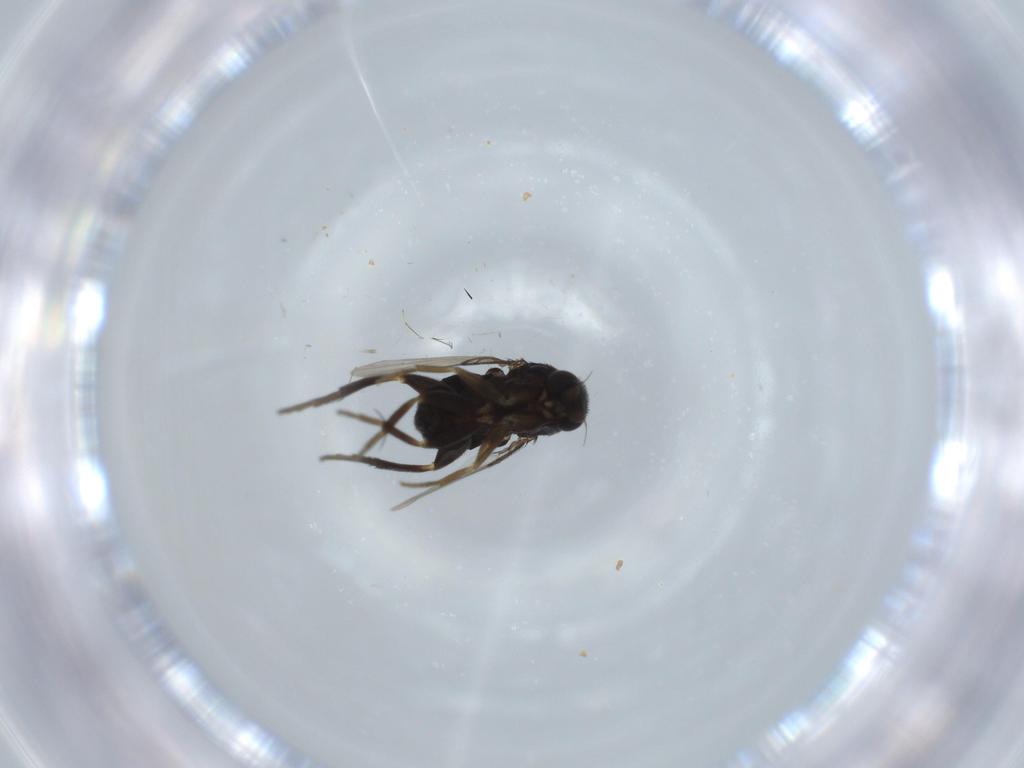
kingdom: Animalia
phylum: Arthropoda
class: Insecta
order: Diptera
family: Phoridae
